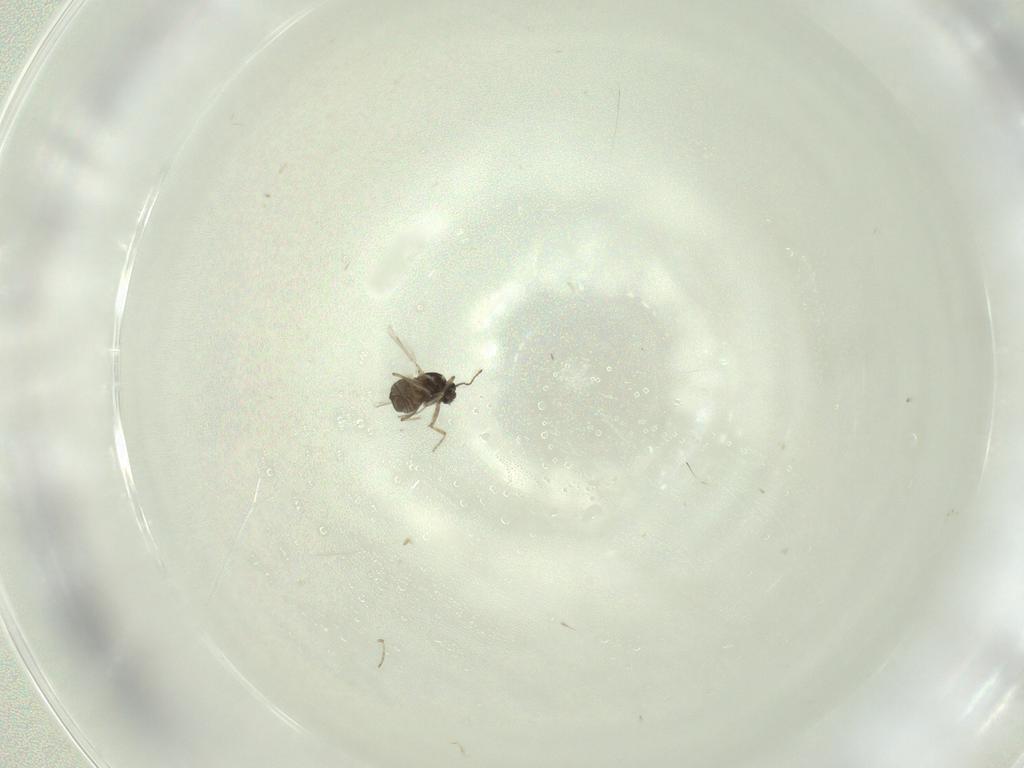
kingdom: Animalia
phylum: Arthropoda
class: Insecta
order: Diptera
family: Ceratopogonidae
